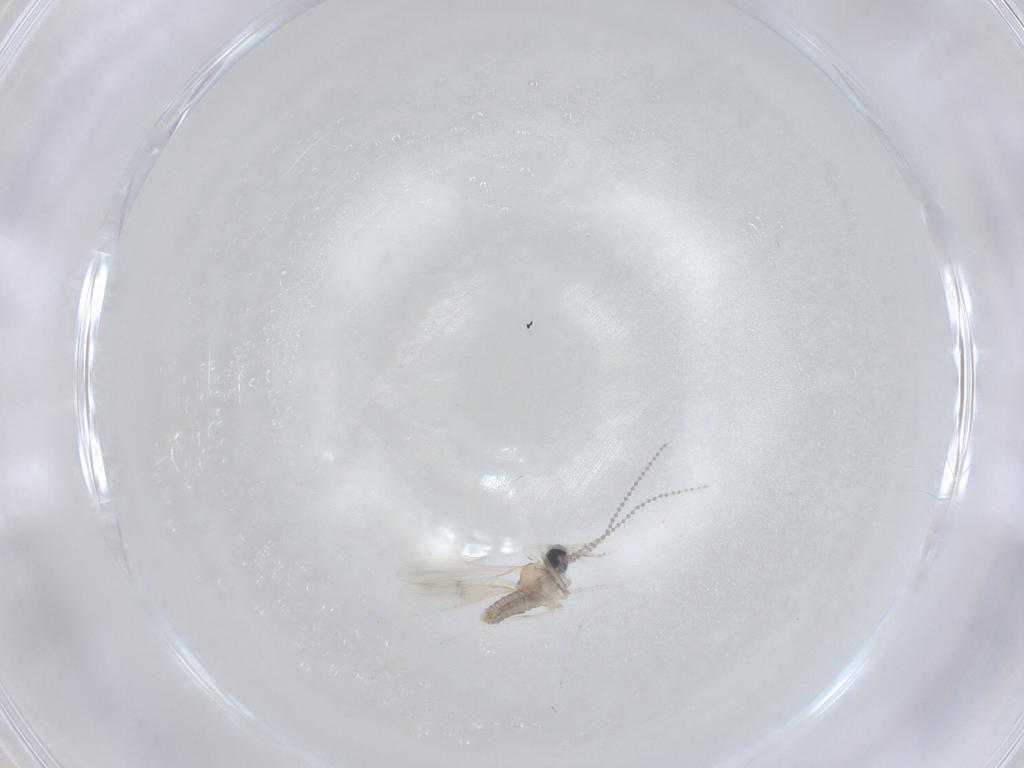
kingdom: Animalia
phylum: Arthropoda
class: Insecta
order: Diptera
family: Cecidomyiidae
